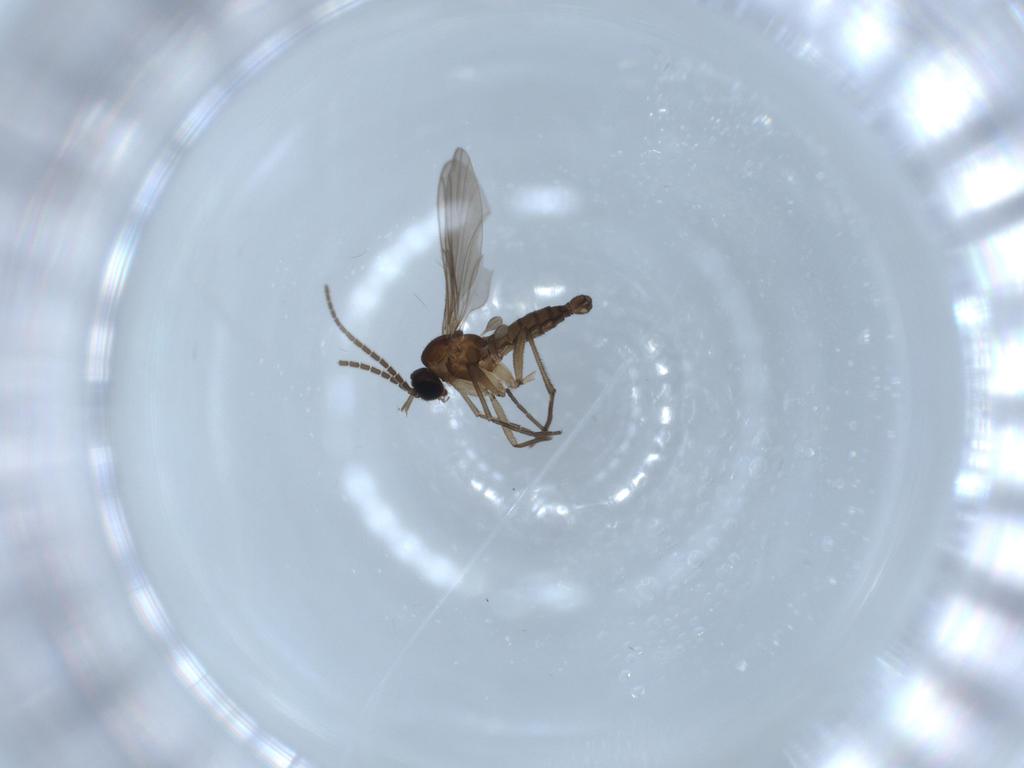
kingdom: Animalia
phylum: Arthropoda
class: Insecta
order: Diptera
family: Sciaridae
